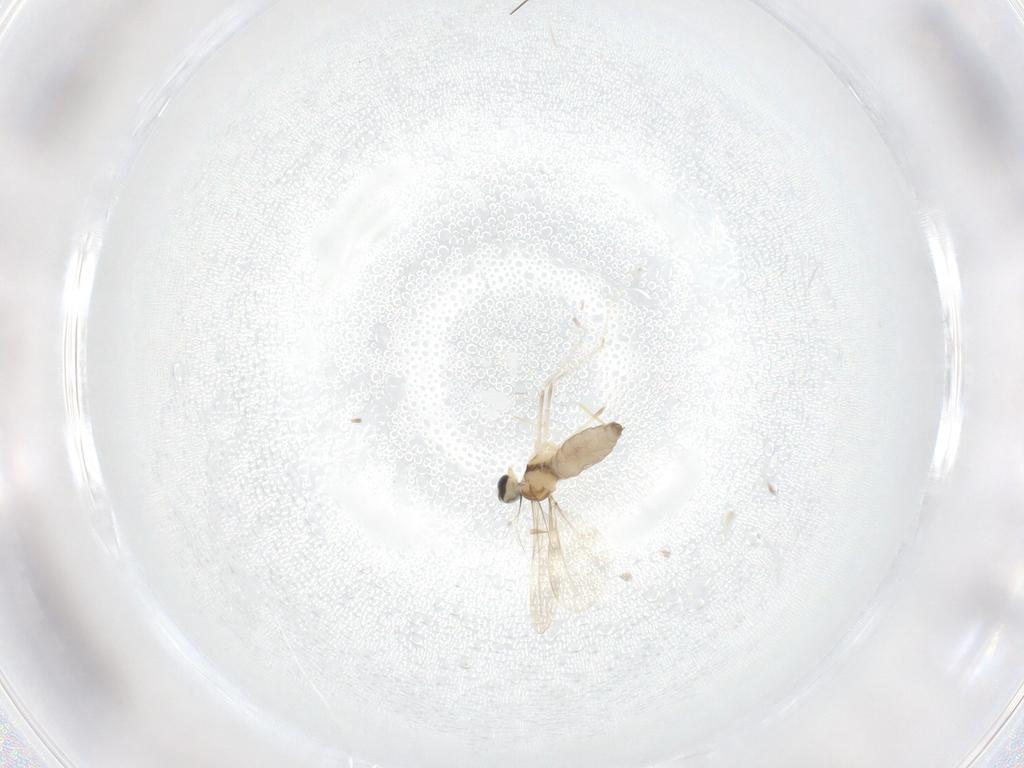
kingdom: Animalia
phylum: Arthropoda
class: Insecta
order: Diptera
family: Cecidomyiidae
